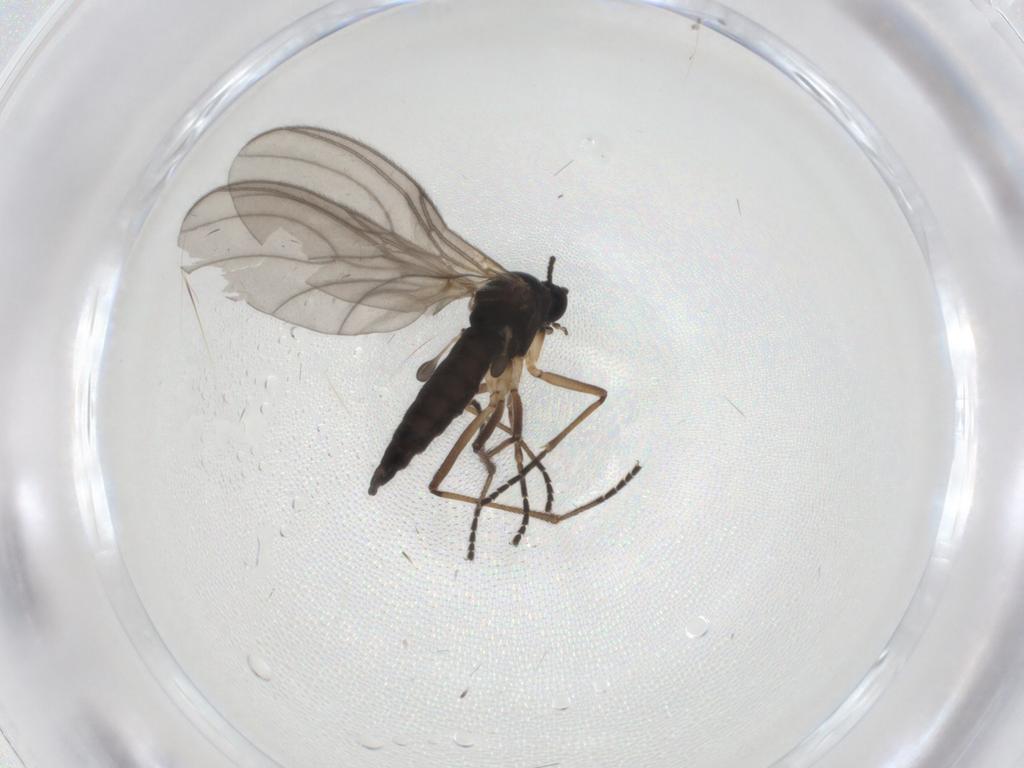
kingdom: Animalia
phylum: Arthropoda
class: Insecta
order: Diptera
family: Sciaridae
